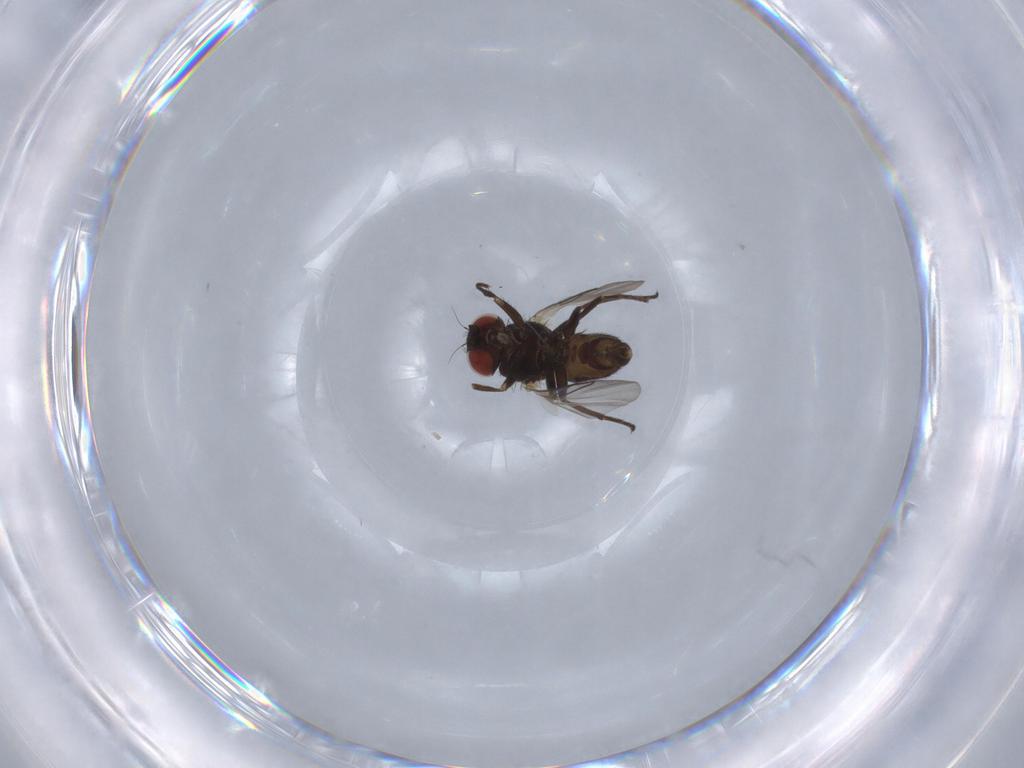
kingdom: Animalia
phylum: Arthropoda
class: Insecta
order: Diptera
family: Agromyzidae
